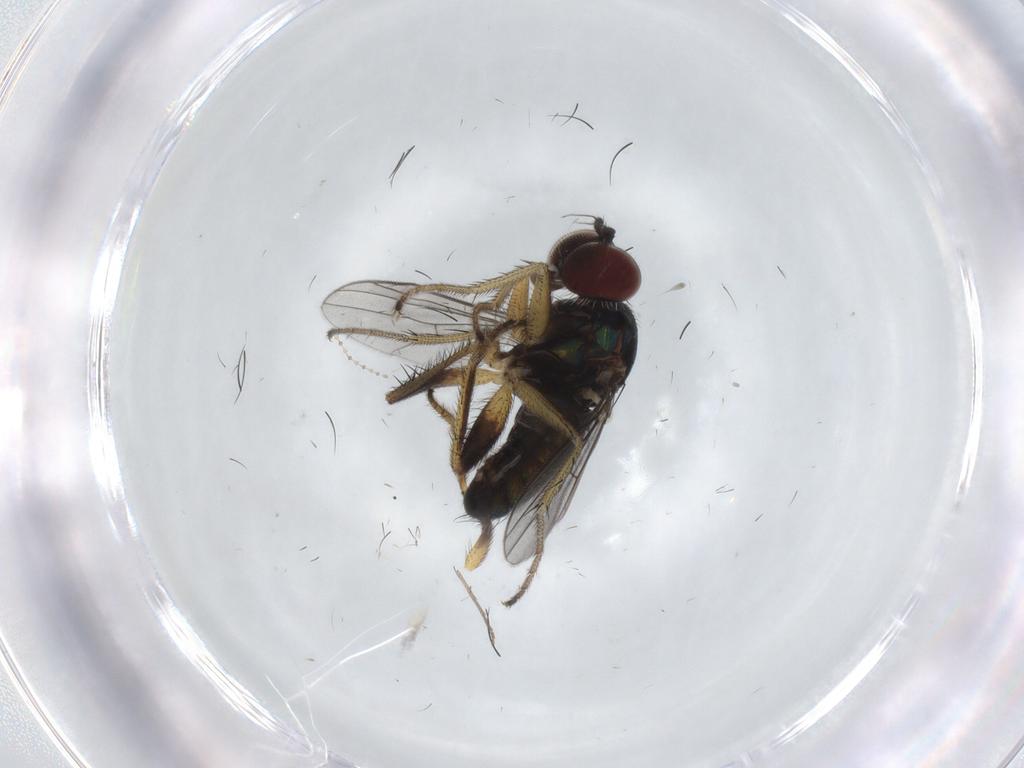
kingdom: Animalia
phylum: Arthropoda
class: Insecta
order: Diptera
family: Dolichopodidae
